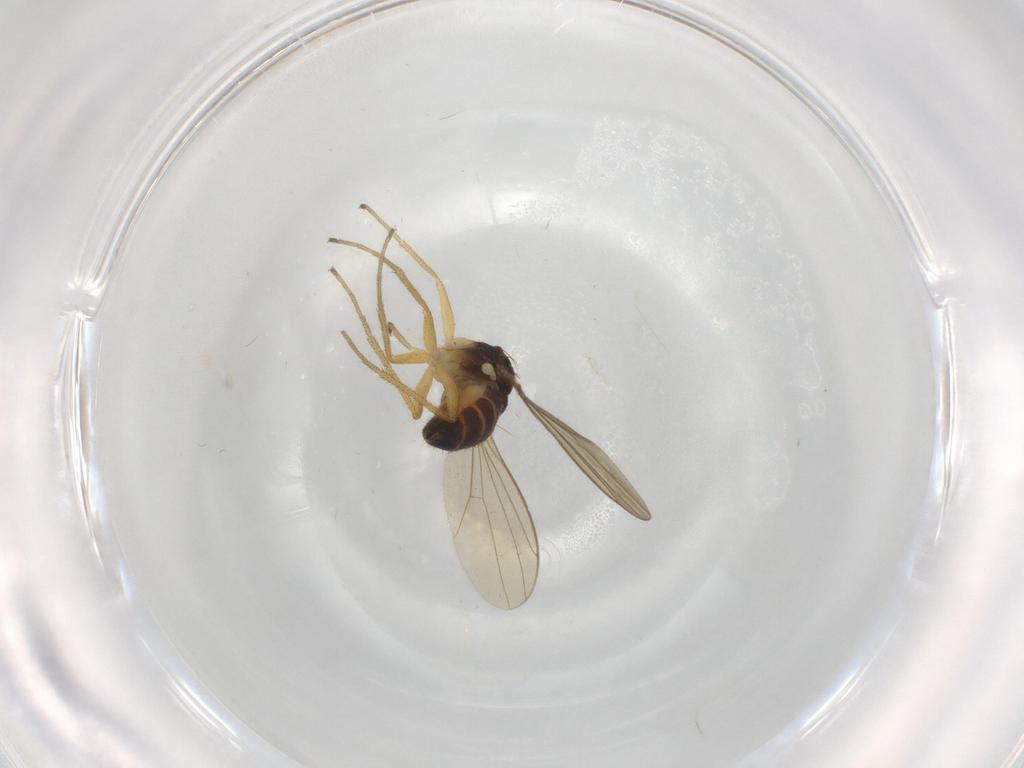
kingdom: Animalia
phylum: Arthropoda
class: Insecta
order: Diptera
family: Dolichopodidae
